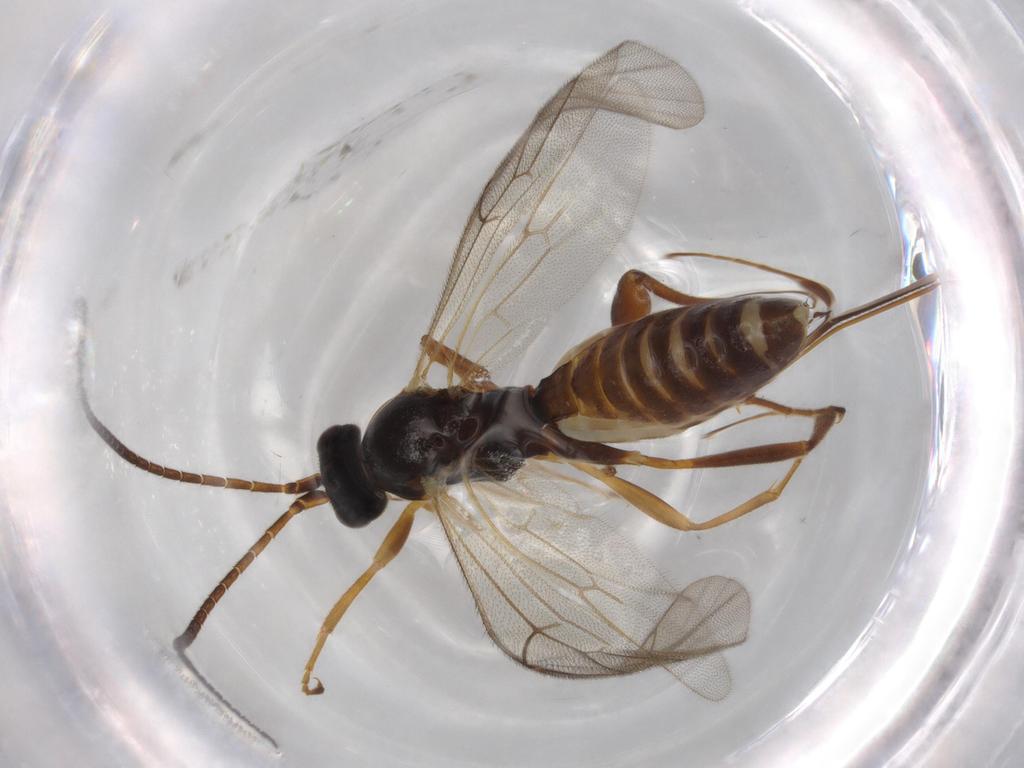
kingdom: Animalia
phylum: Arthropoda
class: Insecta
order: Hymenoptera
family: Ichneumonidae
